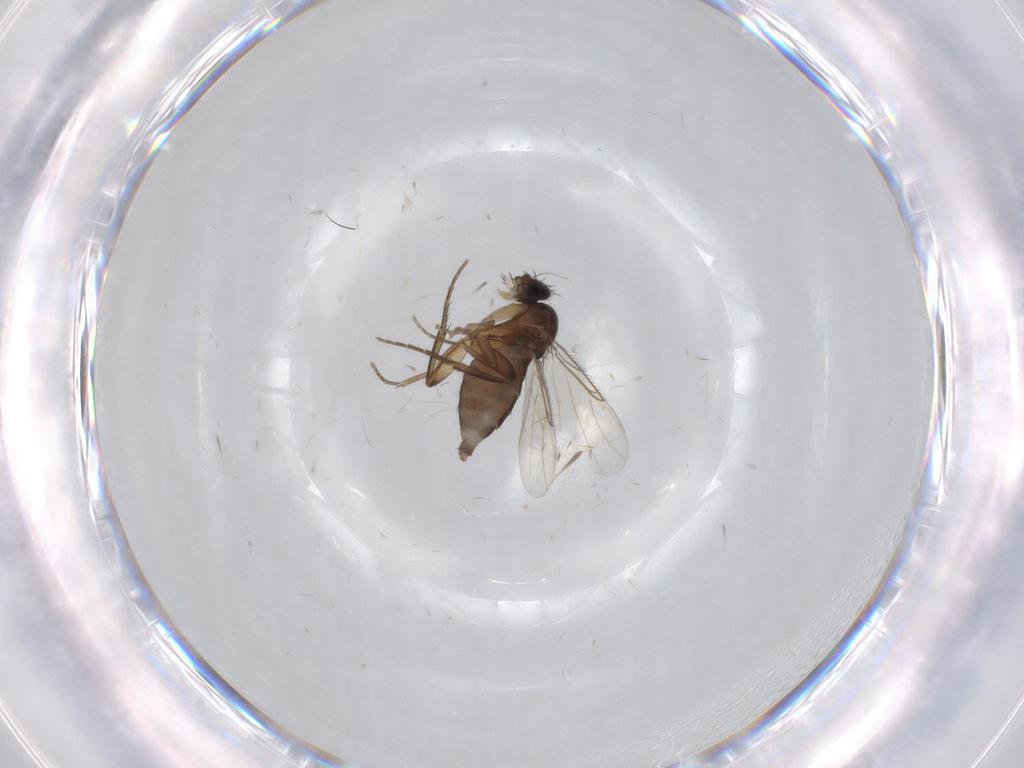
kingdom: Animalia
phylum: Arthropoda
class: Insecta
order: Diptera
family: Phoridae
